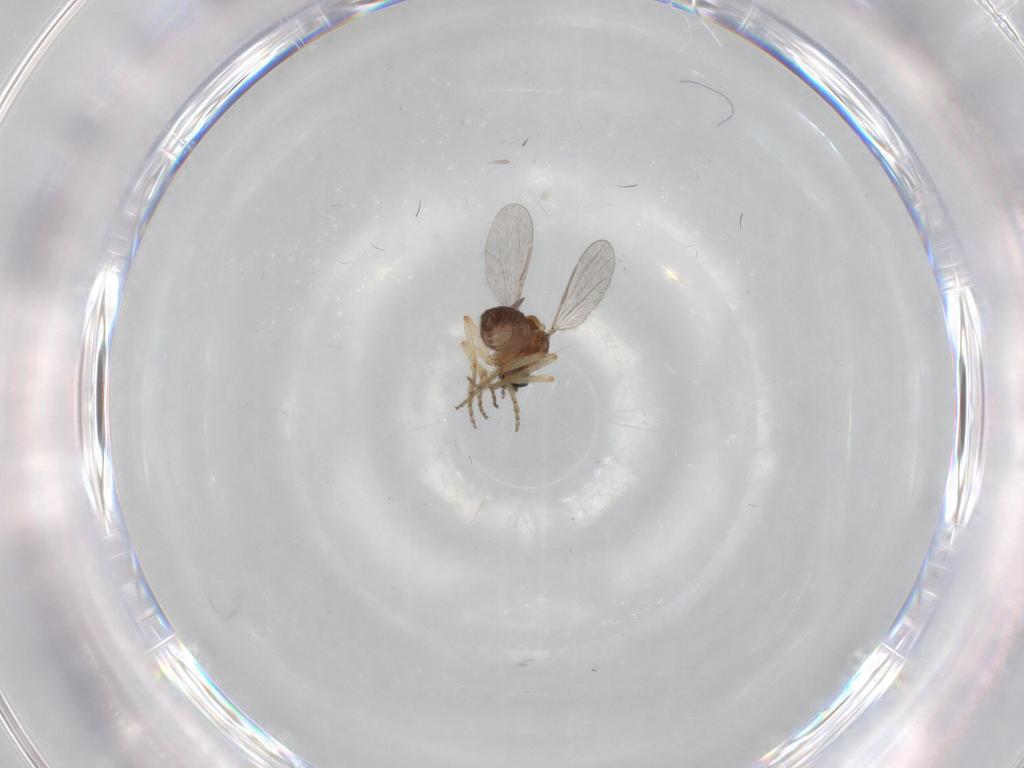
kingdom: Animalia
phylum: Arthropoda
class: Insecta
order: Diptera
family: Ceratopogonidae
